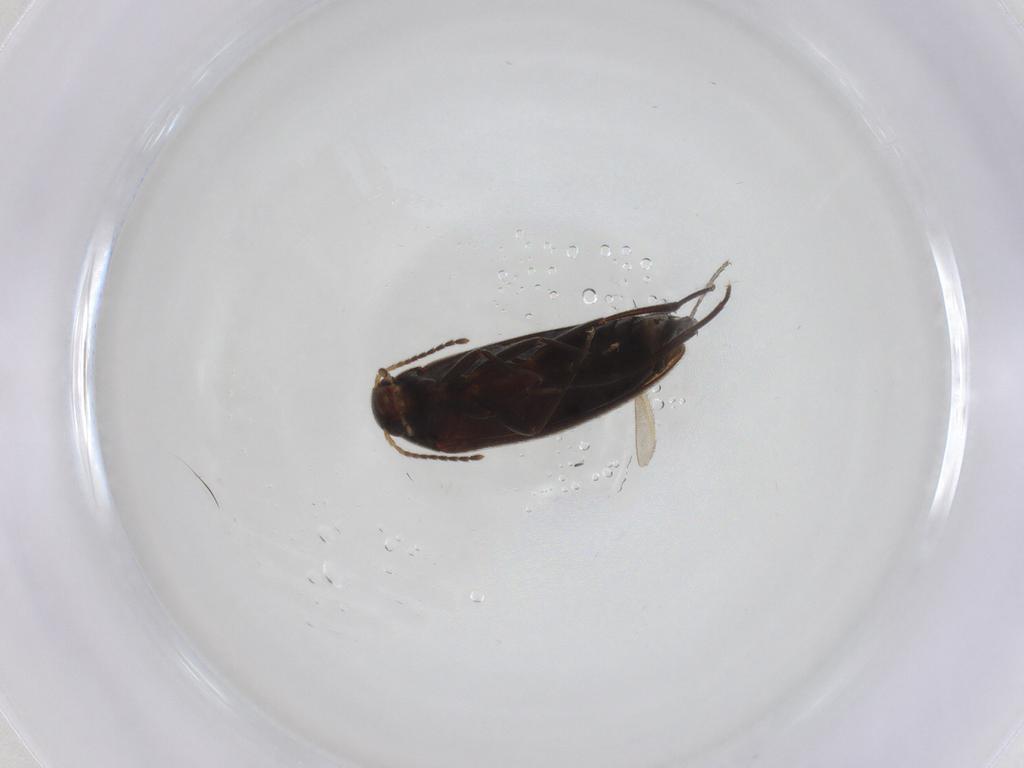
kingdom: Animalia
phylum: Arthropoda
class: Insecta
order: Coleoptera
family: Melandryidae
